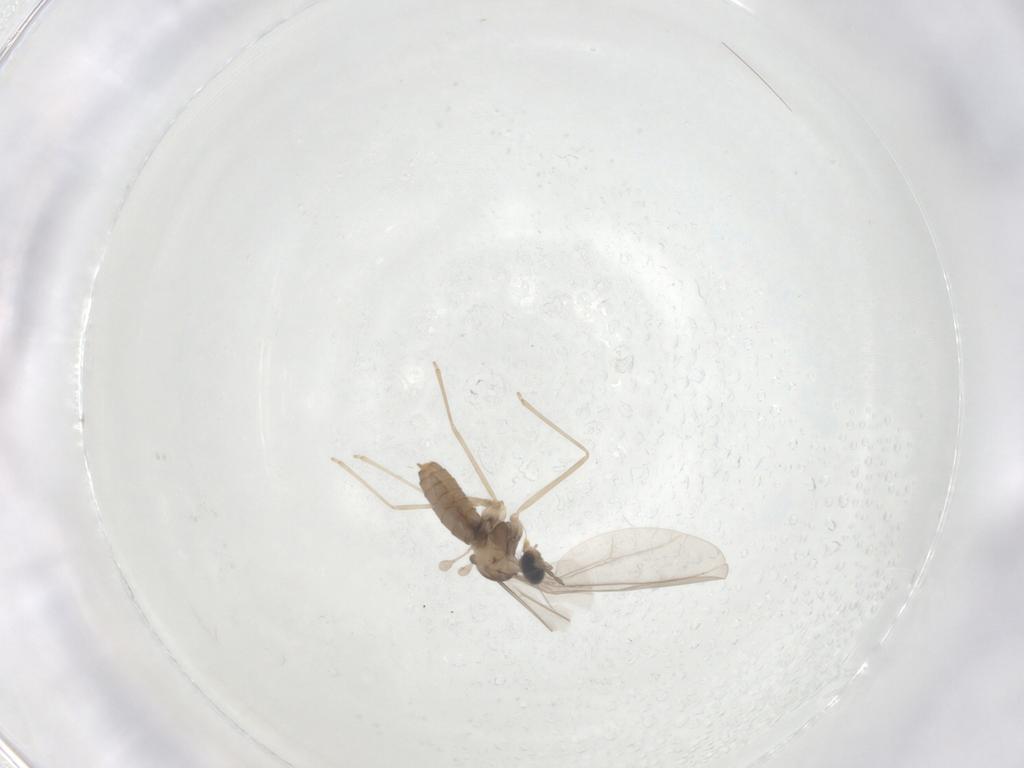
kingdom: Animalia
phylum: Arthropoda
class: Insecta
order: Diptera
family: Cecidomyiidae
